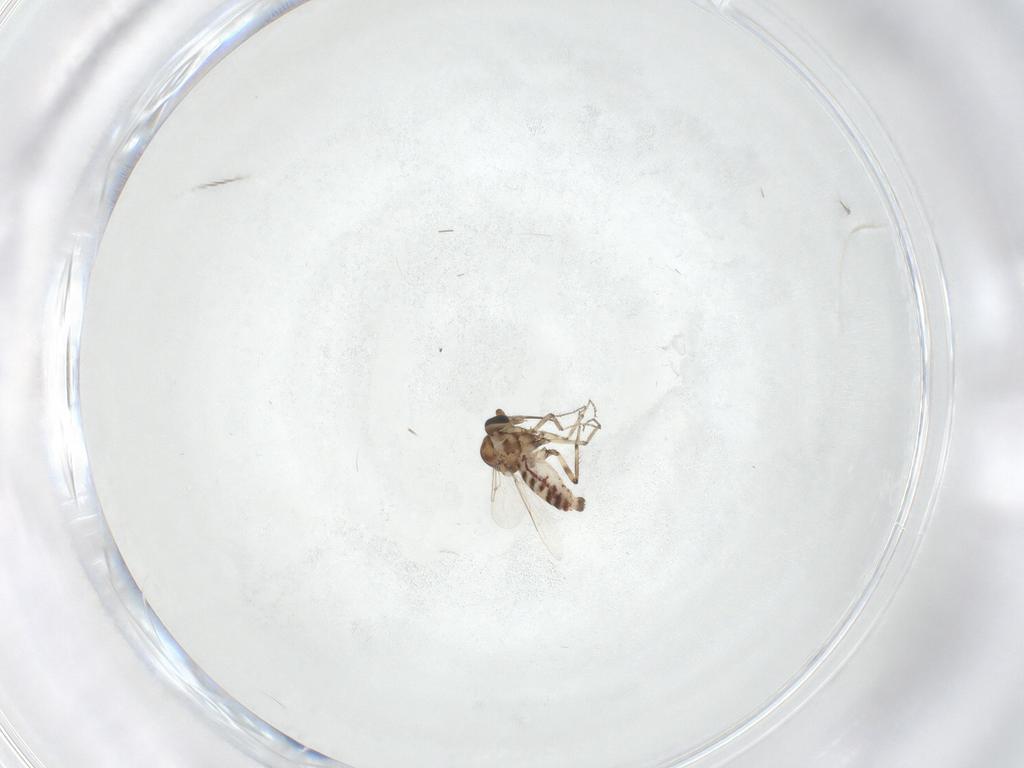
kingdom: Animalia
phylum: Arthropoda
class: Insecta
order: Diptera
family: Ceratopogonidae
